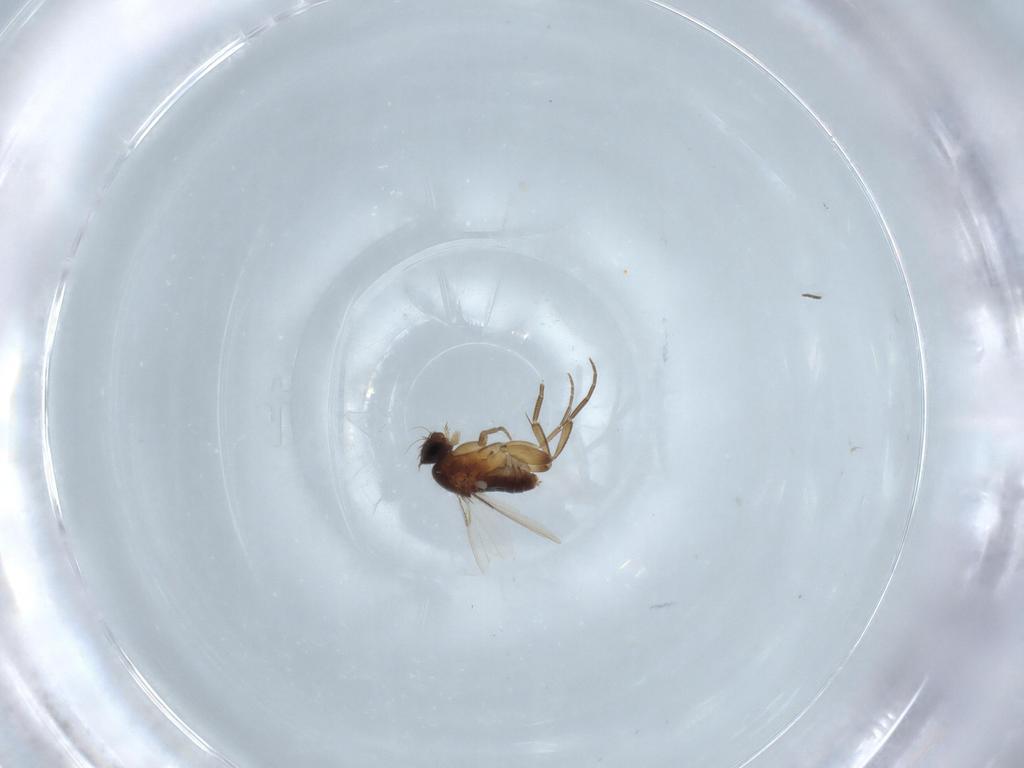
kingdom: Animalia
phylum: Arthropoda
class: Insecta
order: Diptera
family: Phoridae
